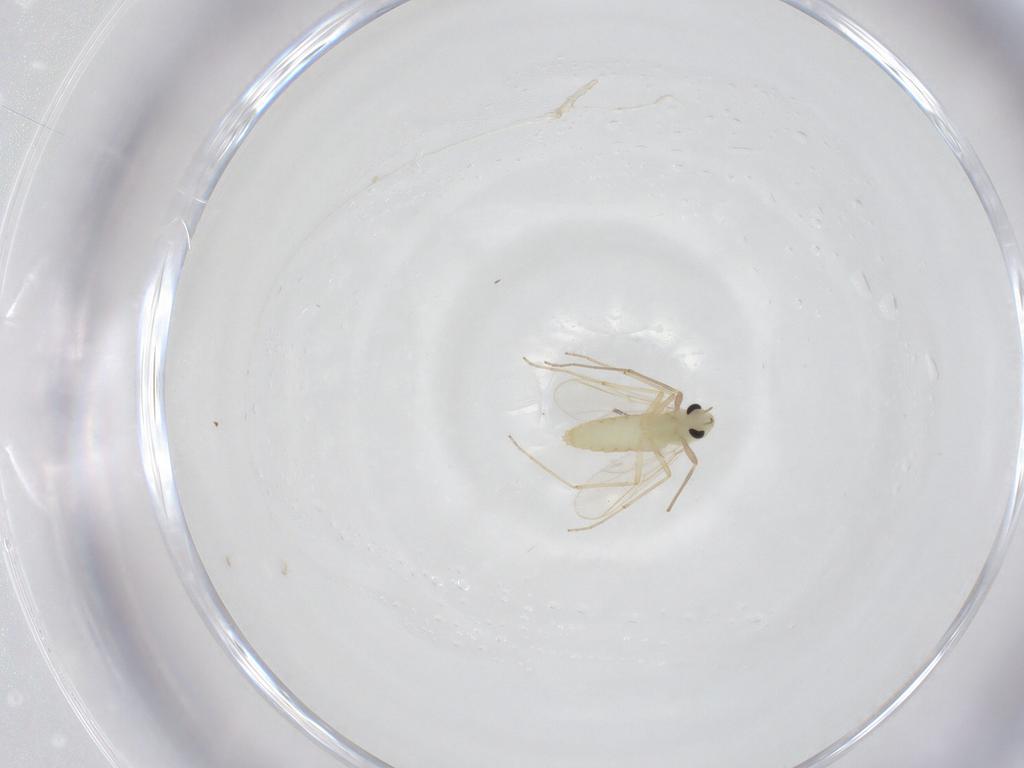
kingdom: Animalia
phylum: Arthropoda
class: Insecta
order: Diptera
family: Chironomidae
